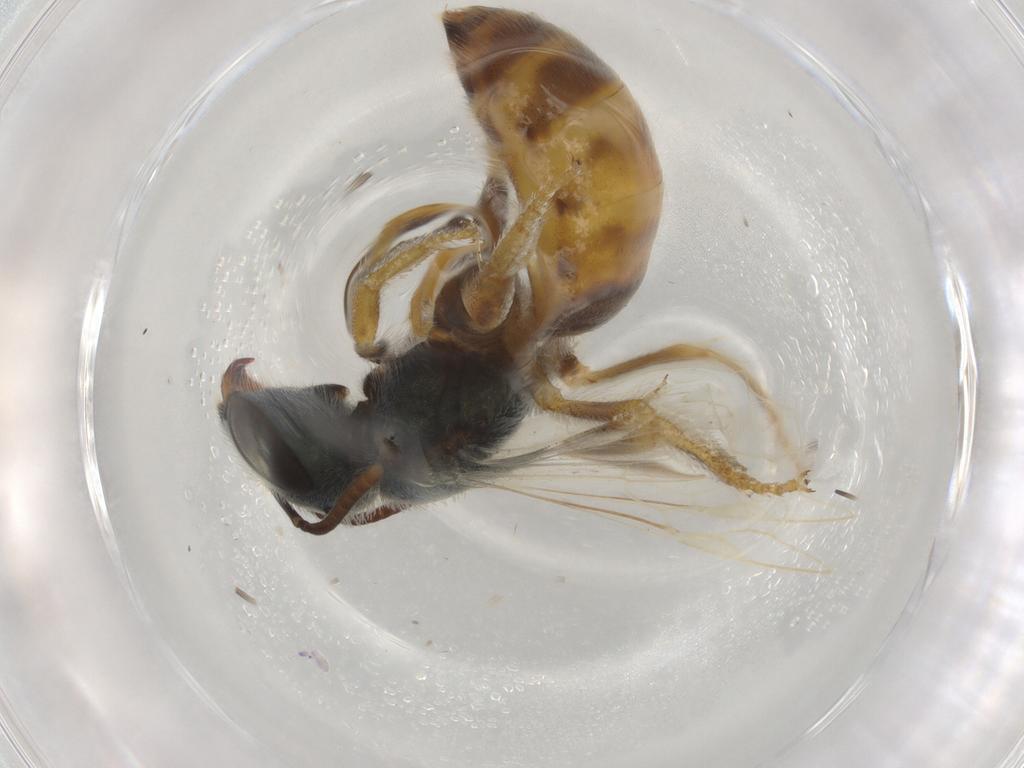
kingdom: Animalia
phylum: Arthropoda
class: Insecta
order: Hymenoptera
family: Halictidae
